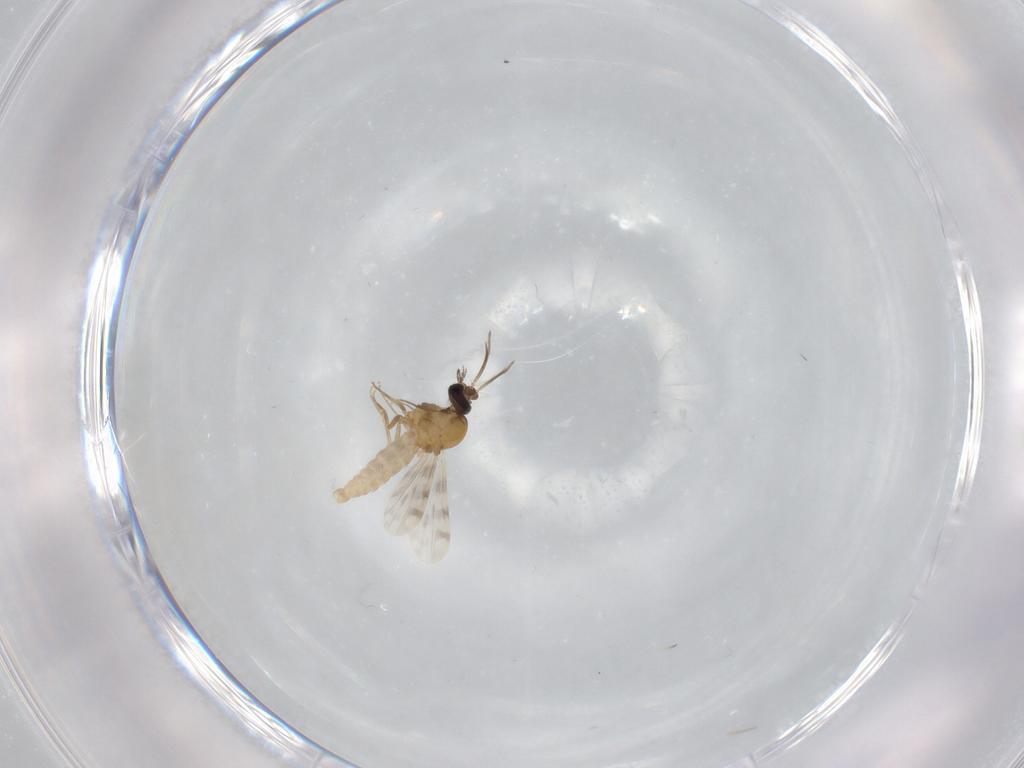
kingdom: Animalia
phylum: Arthropoda
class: Insecta
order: Diptera
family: Ceratopogonidae
